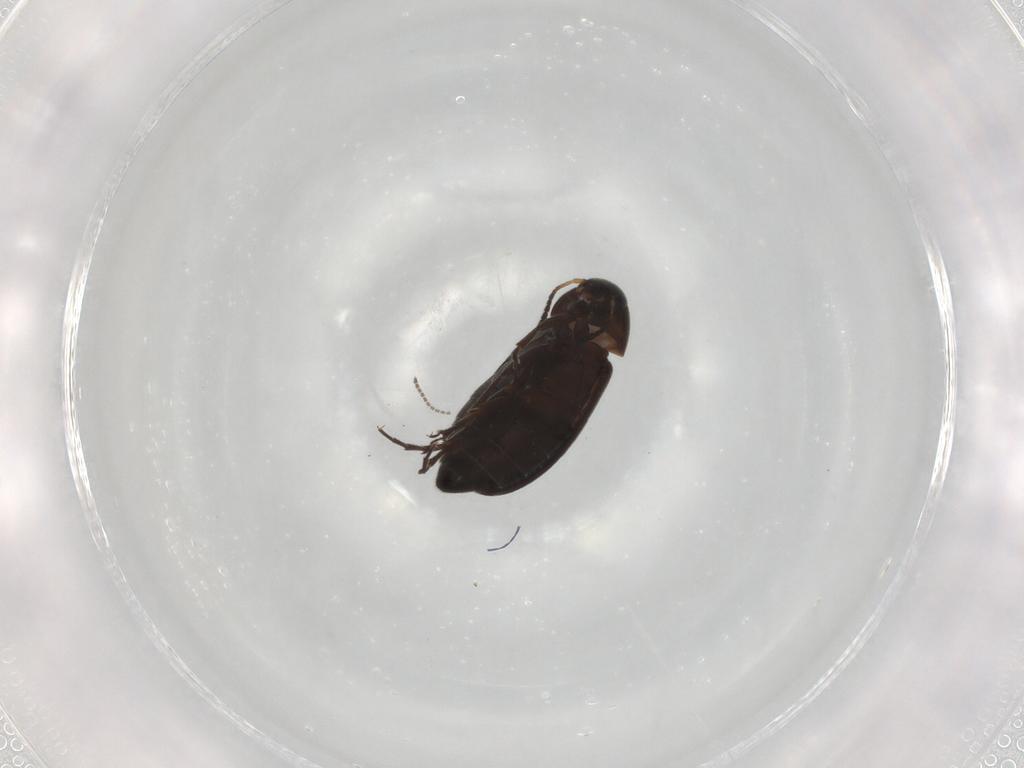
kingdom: Animalia
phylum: Arthropoda
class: Insecta
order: Coleoptera
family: Scraptiidae
